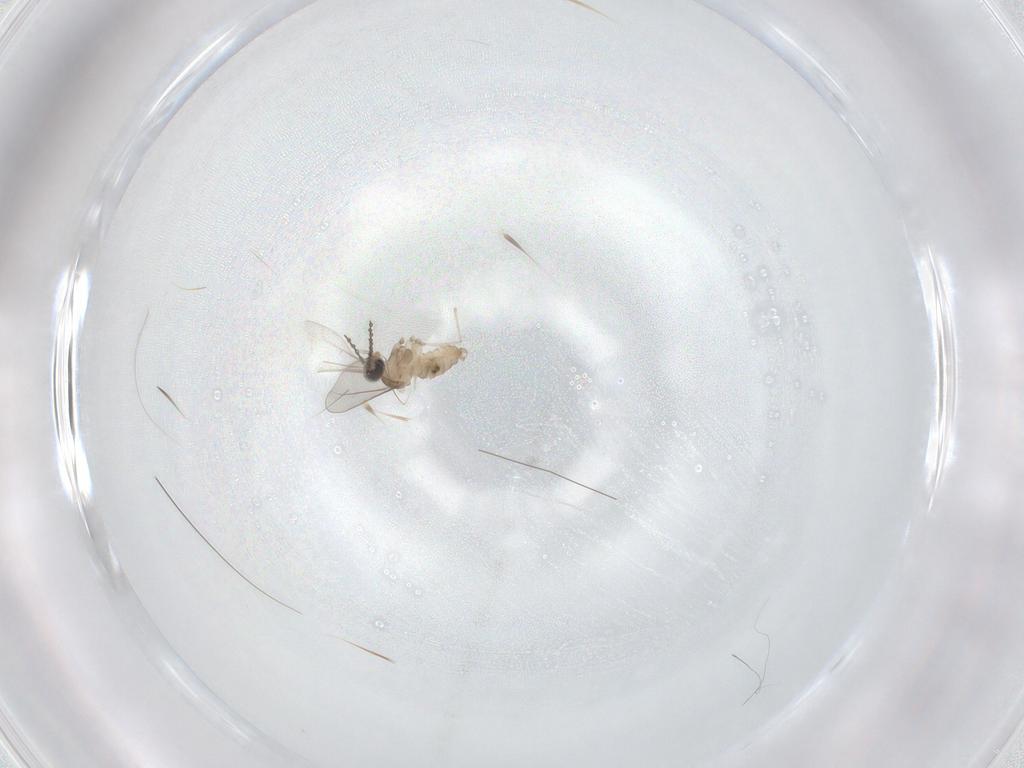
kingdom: Animalia
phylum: Arthropoda
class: Insecta
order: Diptera
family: Cecidomyiidae
